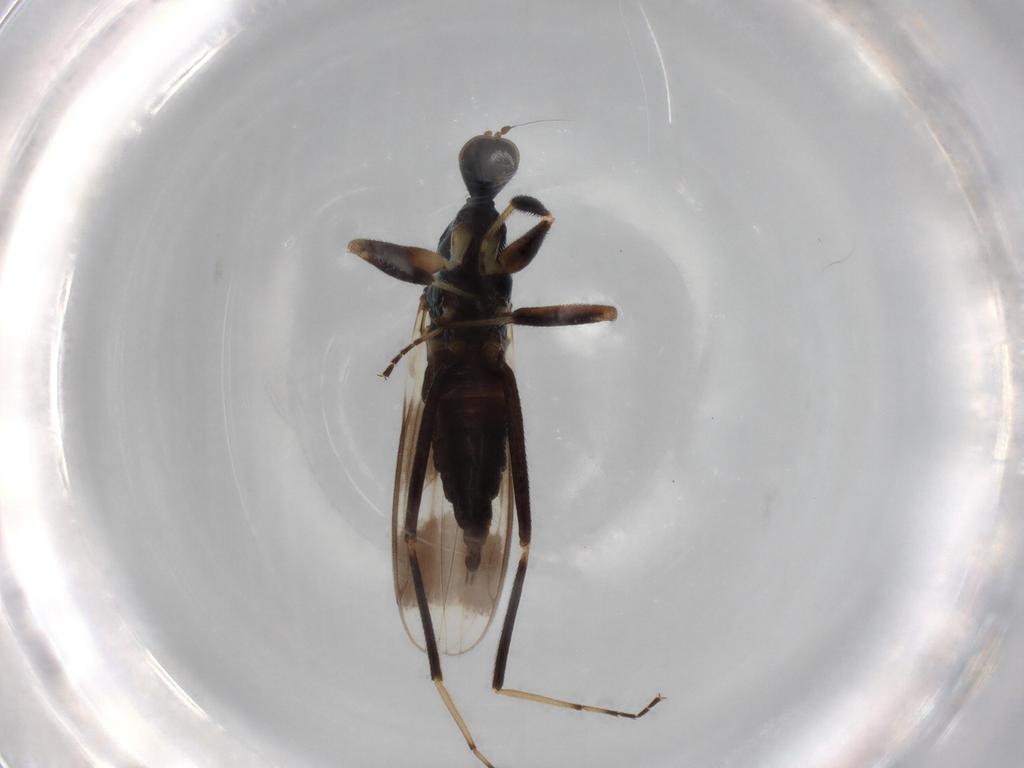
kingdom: Animalia
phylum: Arthropoda
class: Insecta
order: Diptera
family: Hybotidae
